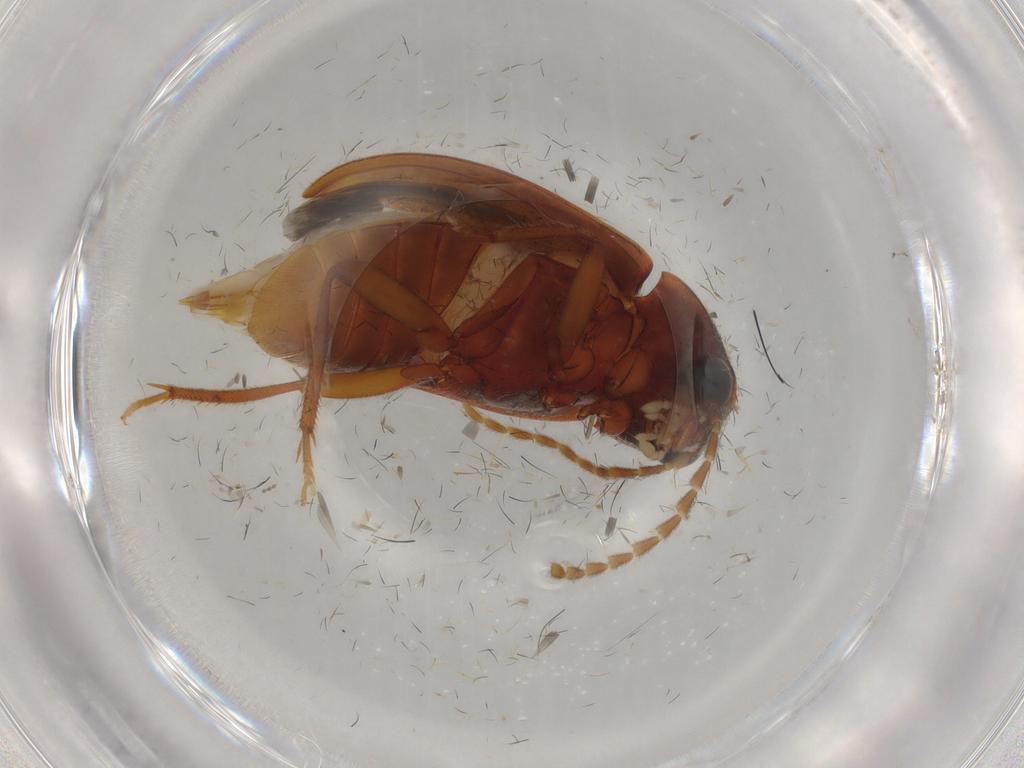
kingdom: Animalia
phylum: Arthropoda
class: Insecta
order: Coleoptera
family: Ptilodactylidae
